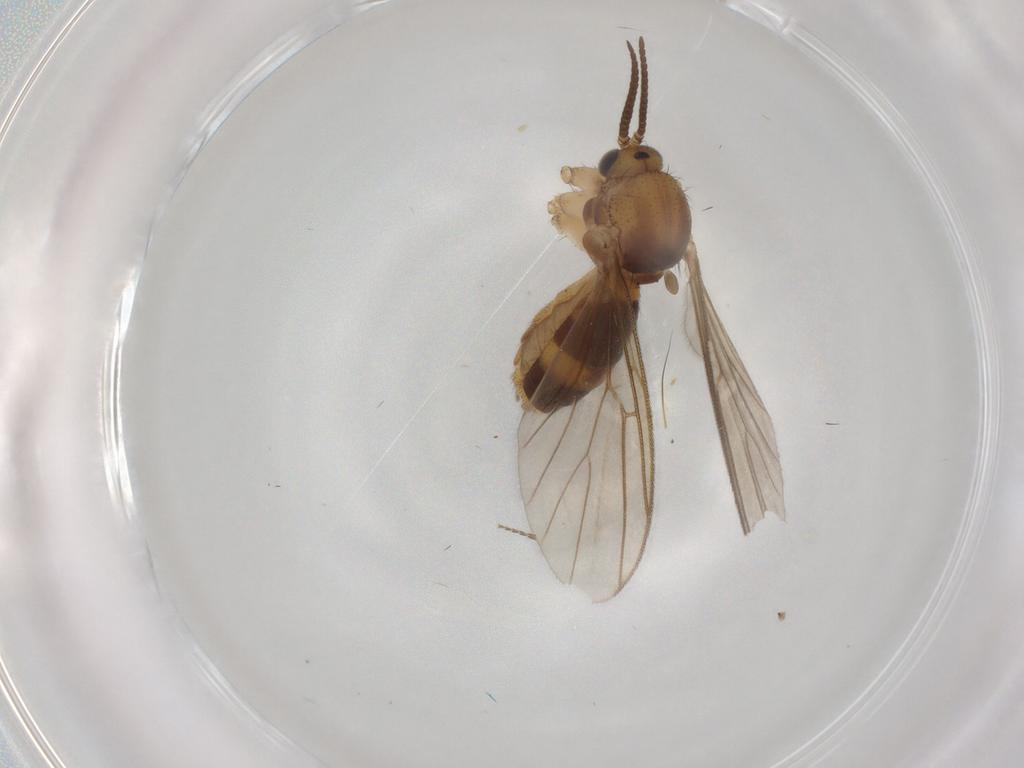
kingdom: Animalia
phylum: Arthropoda
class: Insecta
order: Diptera
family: Mycetophilidae
